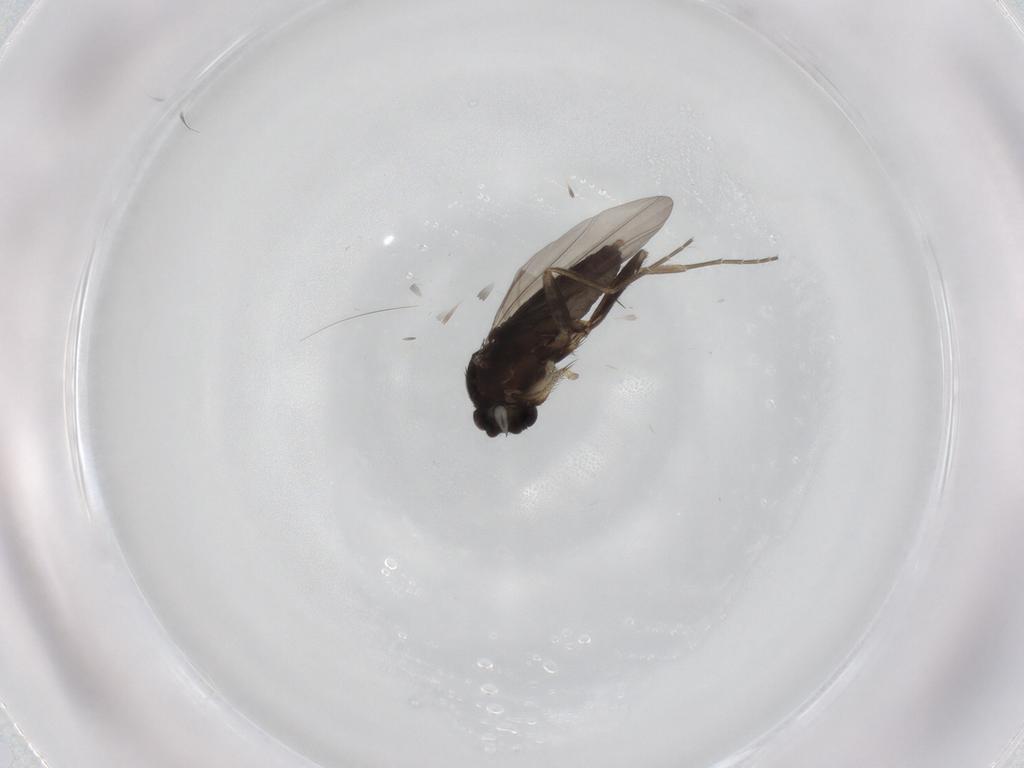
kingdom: Animalia
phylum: Arthropoda
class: Insecta
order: Diptera
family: Phoridae
